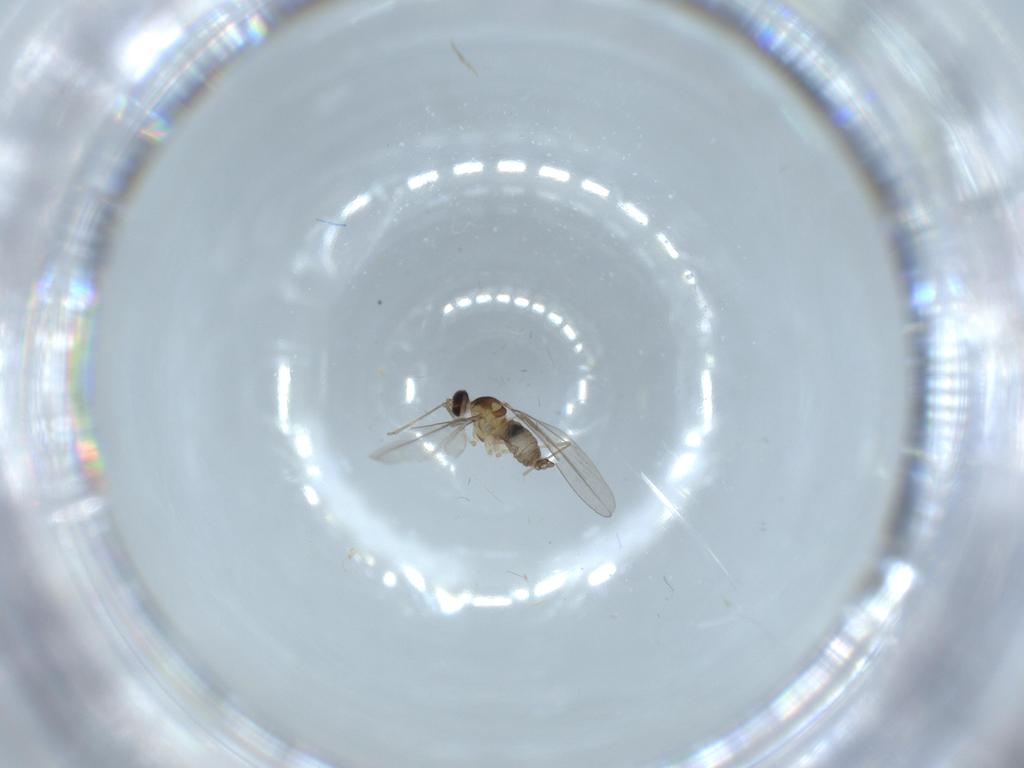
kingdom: Animalia
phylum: Arthropoda
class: Insecta
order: Diptera
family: Cecidomyiidae
